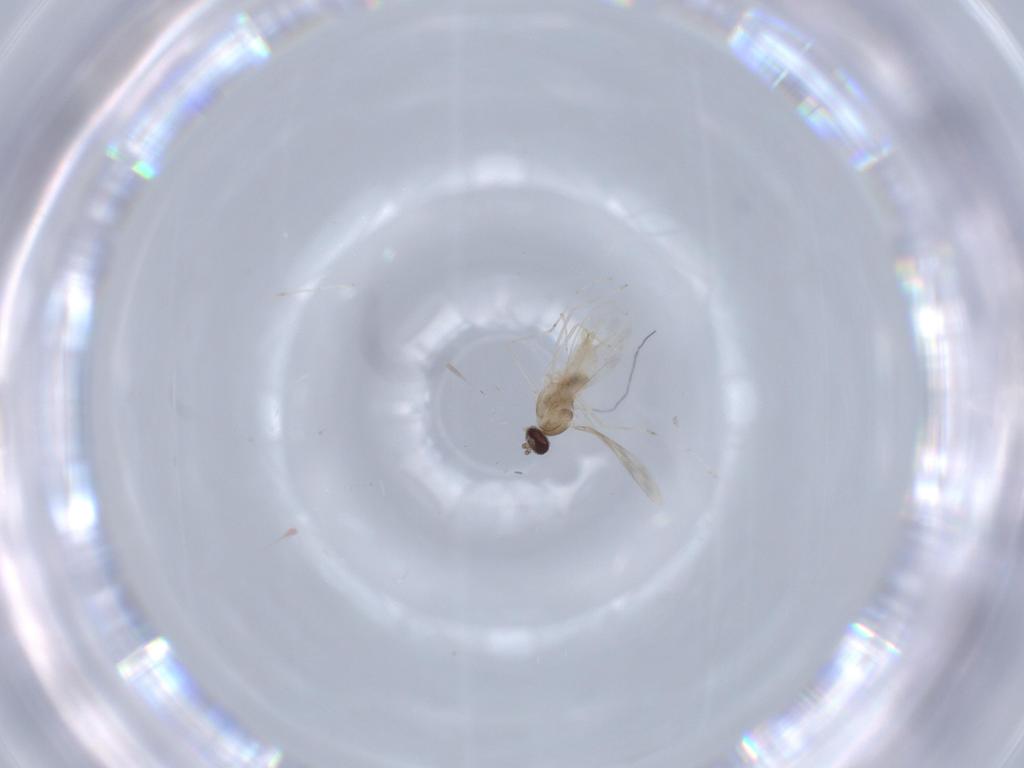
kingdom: Animalia
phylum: Arthropoda
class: Insecta
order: Diptera
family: Cecidomyiidae
